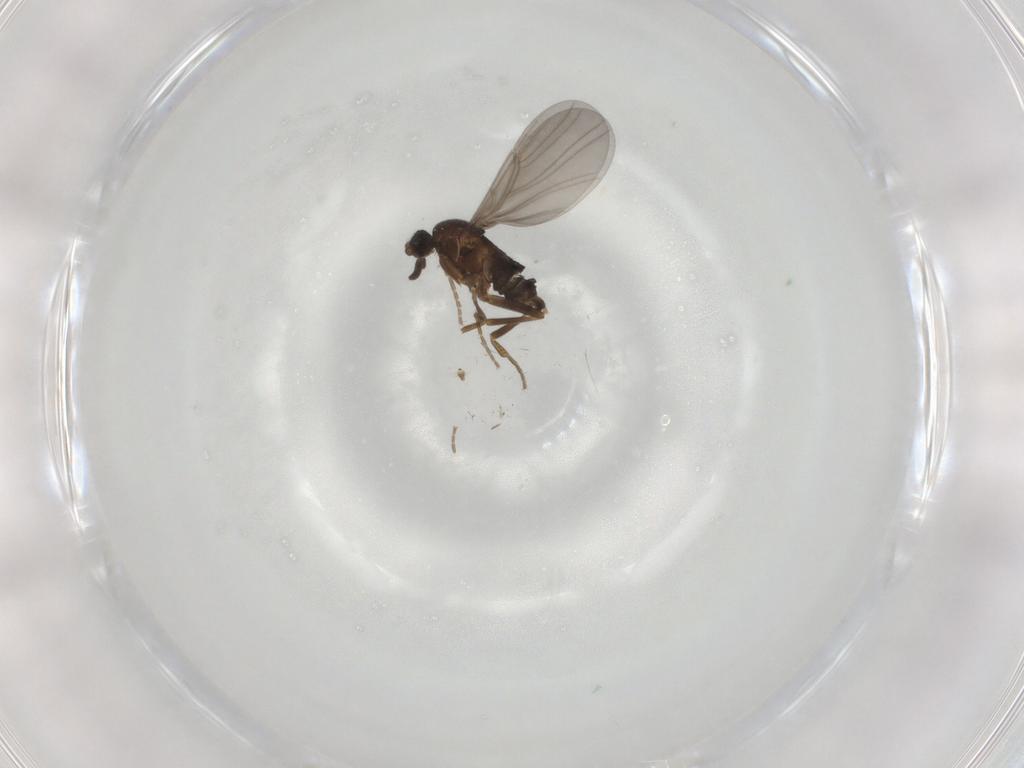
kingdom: Animalia
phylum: Arthropoda
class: Insecta
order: Diptera
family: Phoridae
